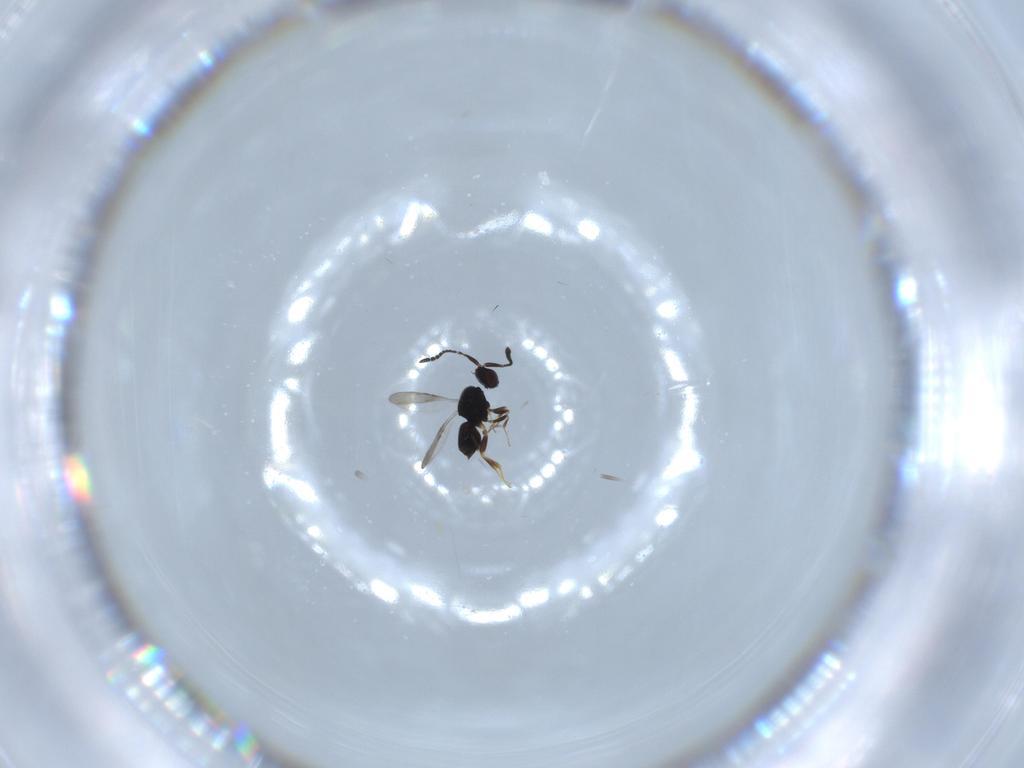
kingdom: Animalia
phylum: Arthropoda
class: Insecta
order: Hymenoptera
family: Ceraphronidae
